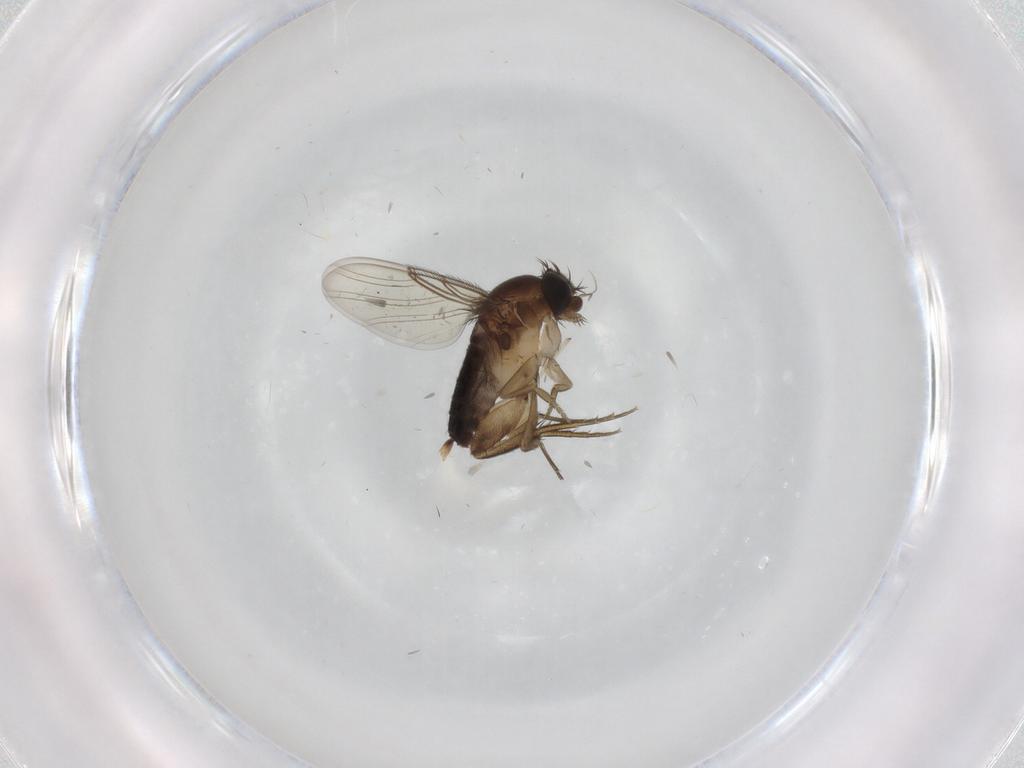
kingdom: Animalia
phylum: Arthropoda
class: Insecta
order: Diptera
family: Phoridae
